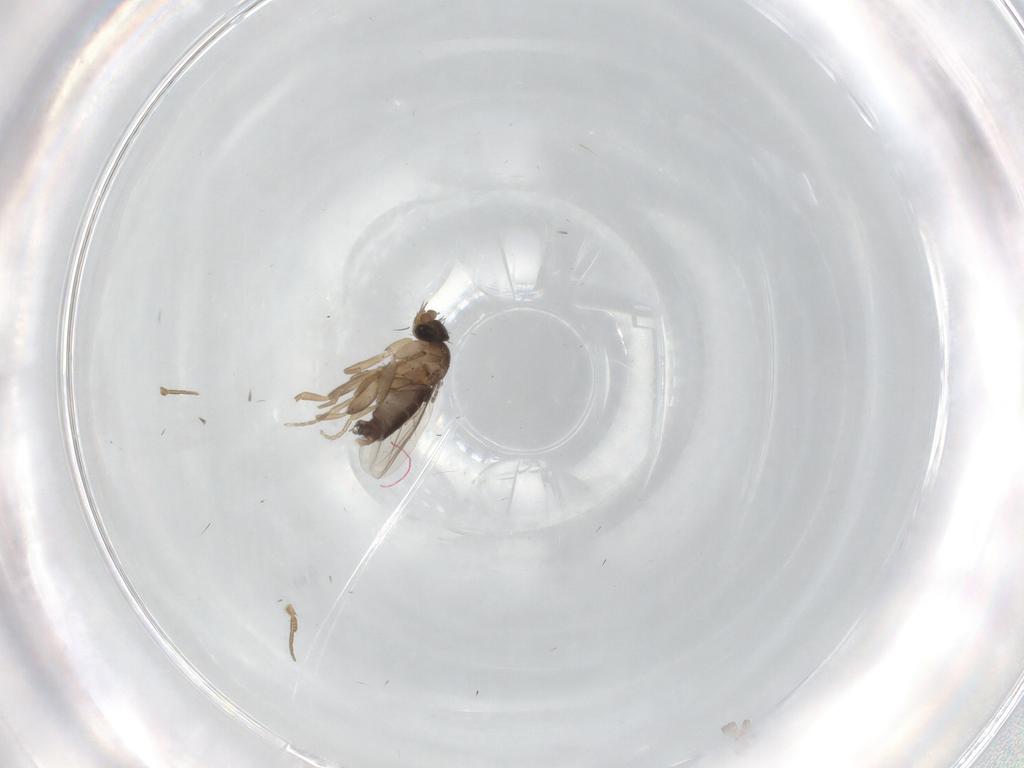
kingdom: Animalia
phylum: Arthropoda
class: Insecta
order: Diptera
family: Phoridae
